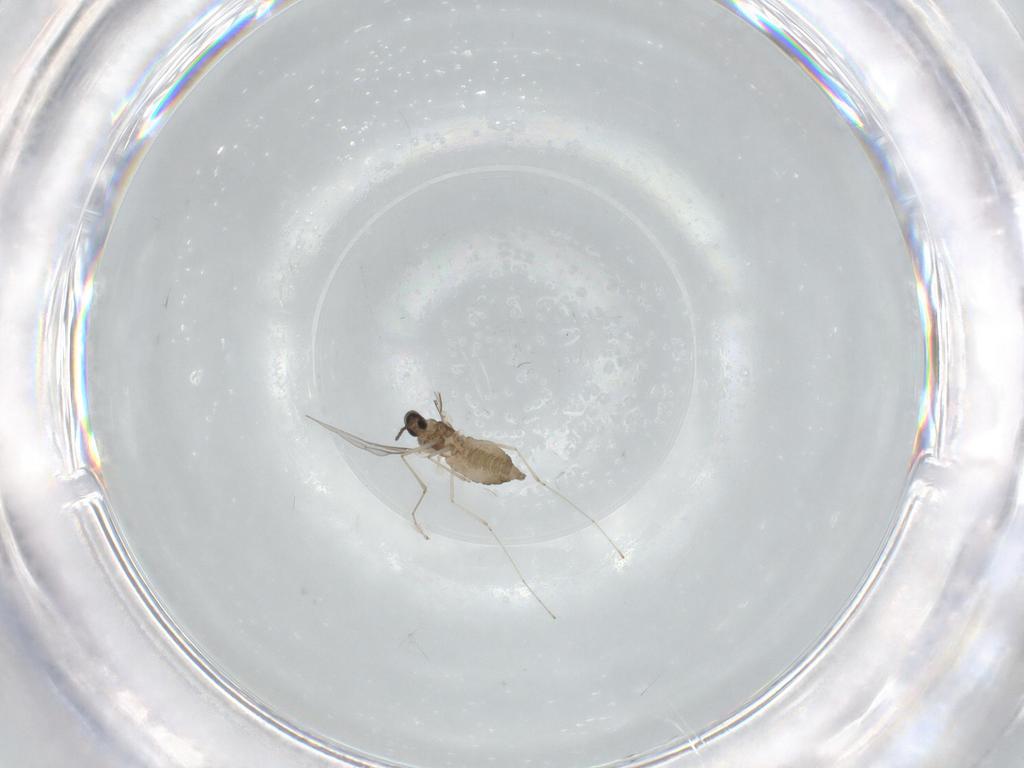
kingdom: Animalia
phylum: Arthropoda
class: Insecta
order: Diptera
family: Cecidomyiidae
